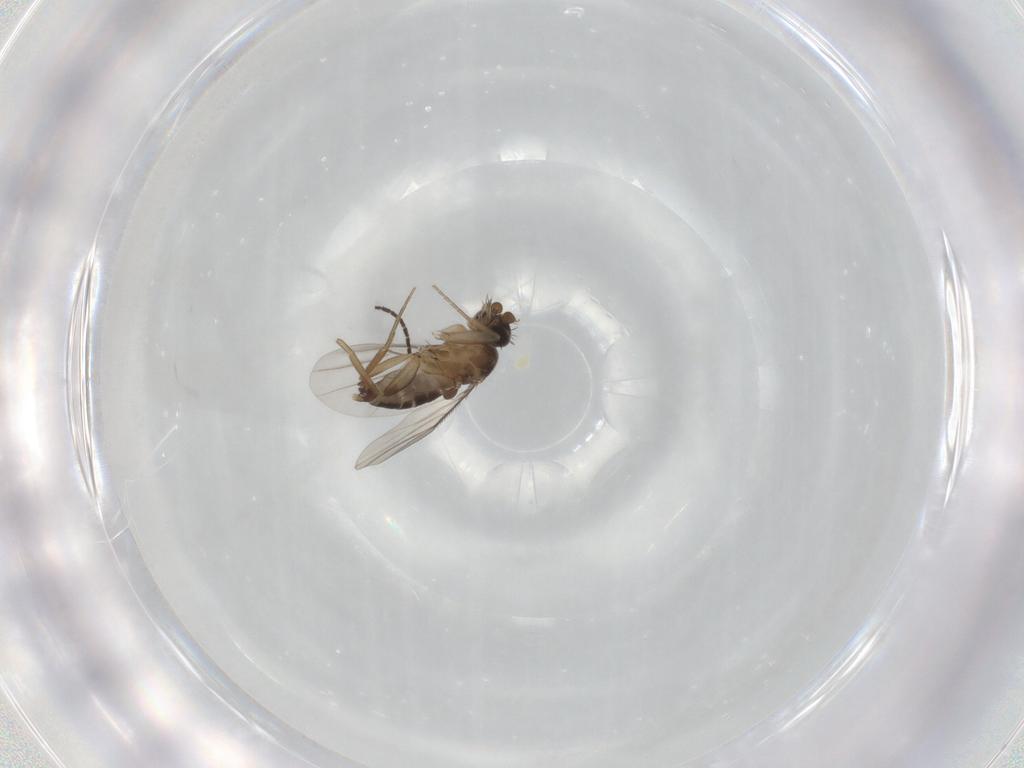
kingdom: Animalia
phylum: Arthropoda
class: Insecta
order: Diptera
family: Phoridae
